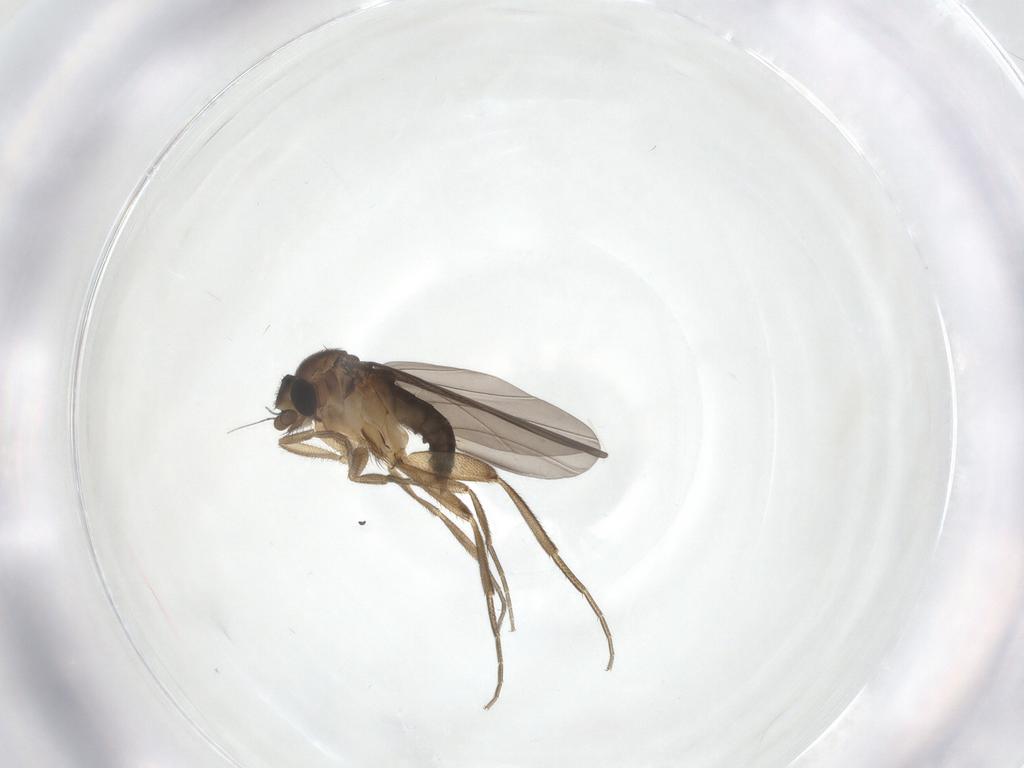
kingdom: Animalia
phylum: Arthropoda
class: Insecta
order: Diptera
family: Phoridae
